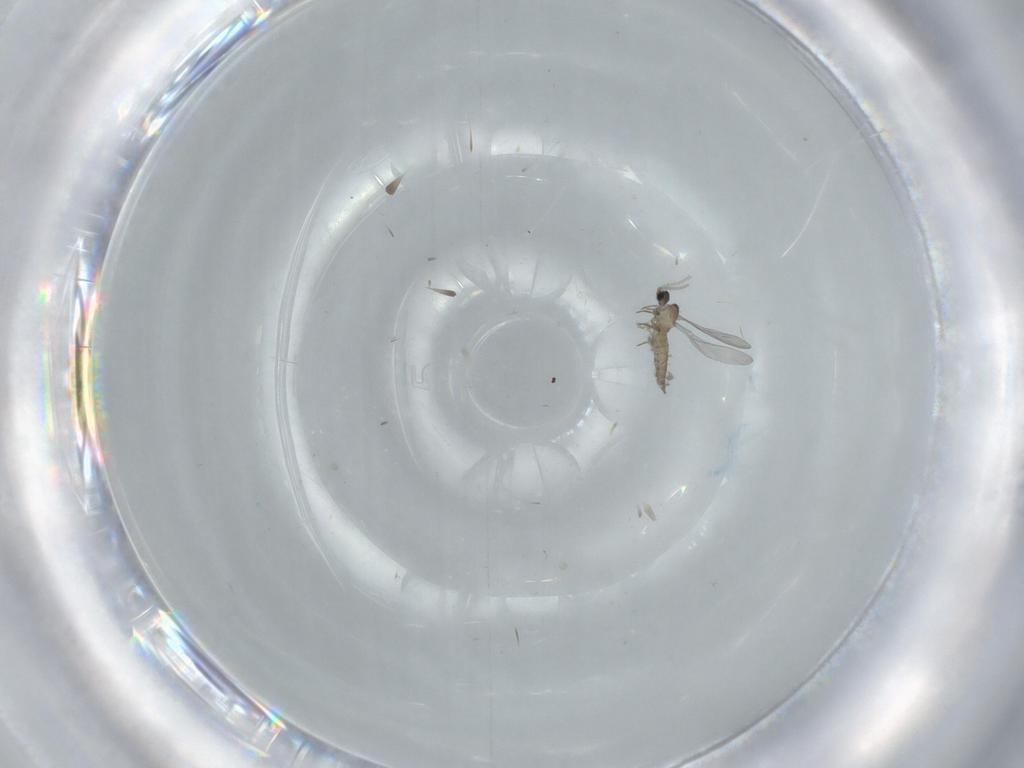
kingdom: Animalia
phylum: Arthropoda
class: Insecta
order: Diptera
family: Cecidomyiidae
